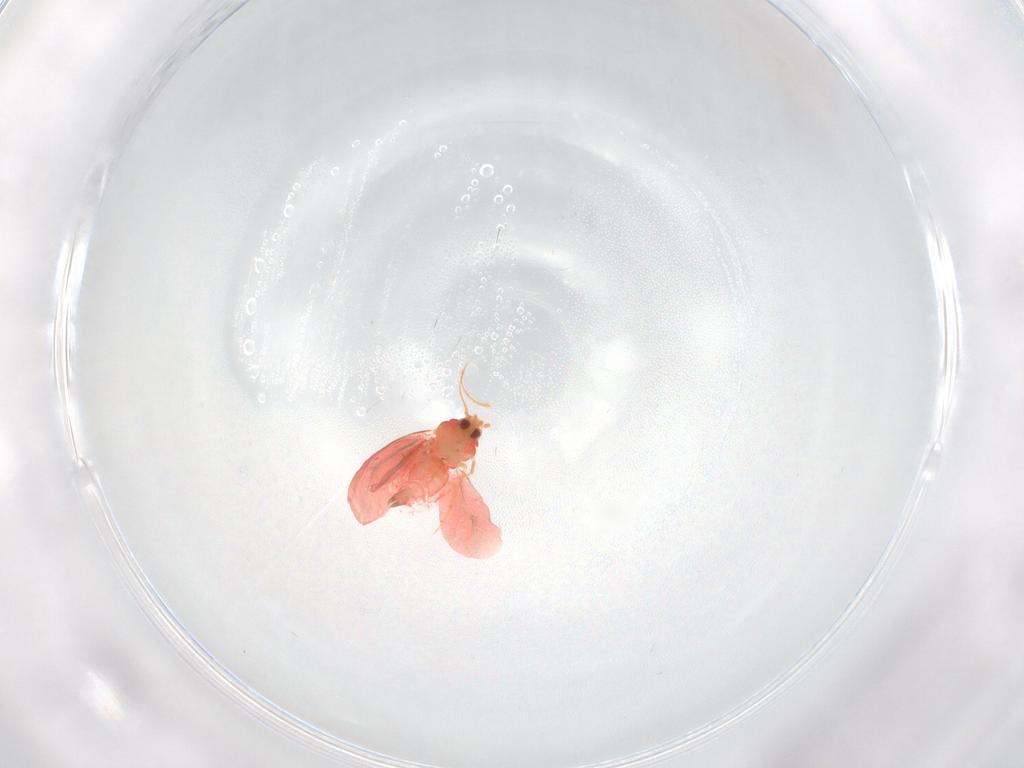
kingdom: Animalia
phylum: Arthropoda
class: Insecta
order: Hemiptera
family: Aleyrodidae
